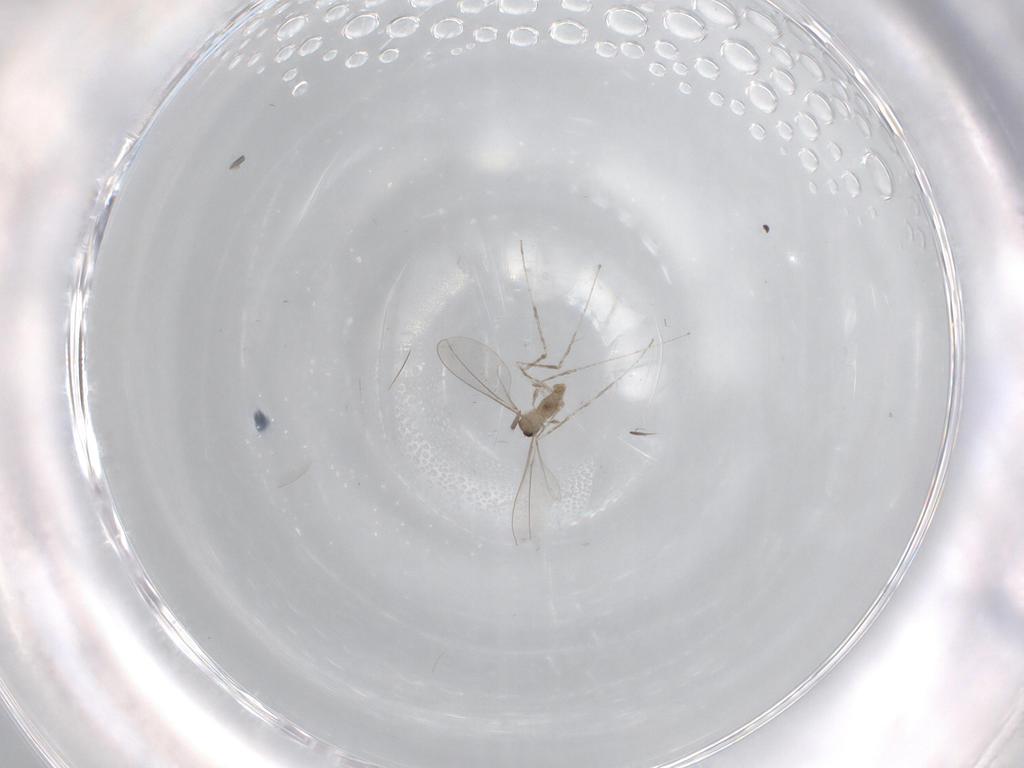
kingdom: Animalia
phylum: Arthropoda
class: Insecta
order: Diptera
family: Cecidomyiidae
